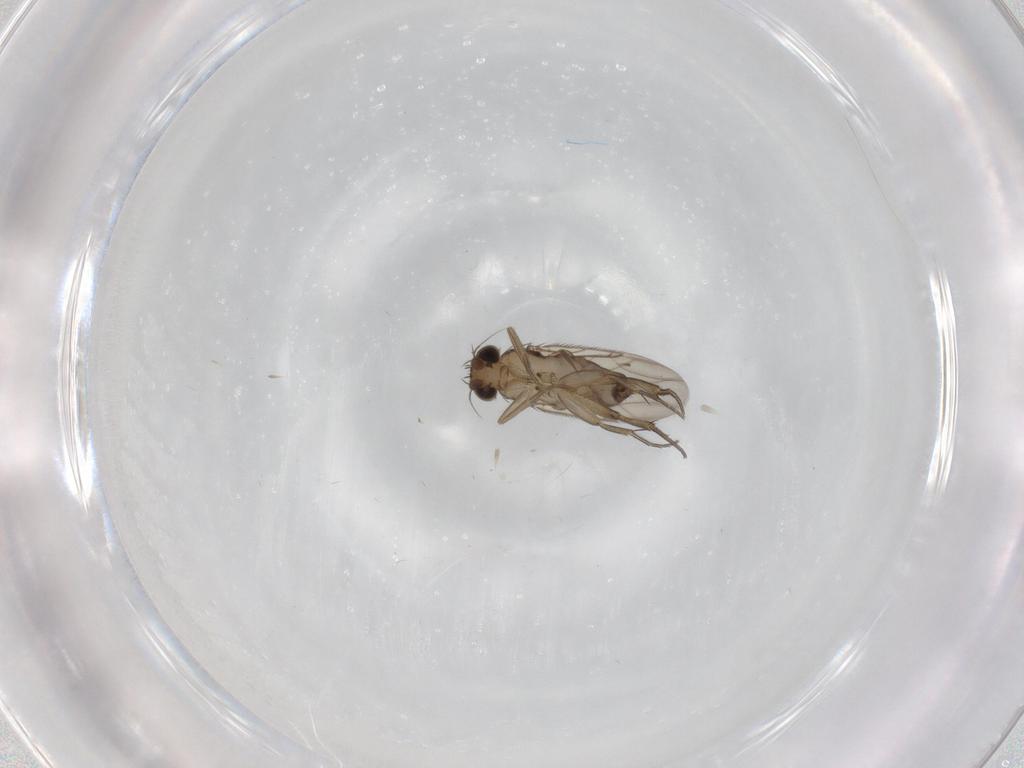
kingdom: Animalia
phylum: Arthropoda
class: Insecta
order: Diptera
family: Phoridae
